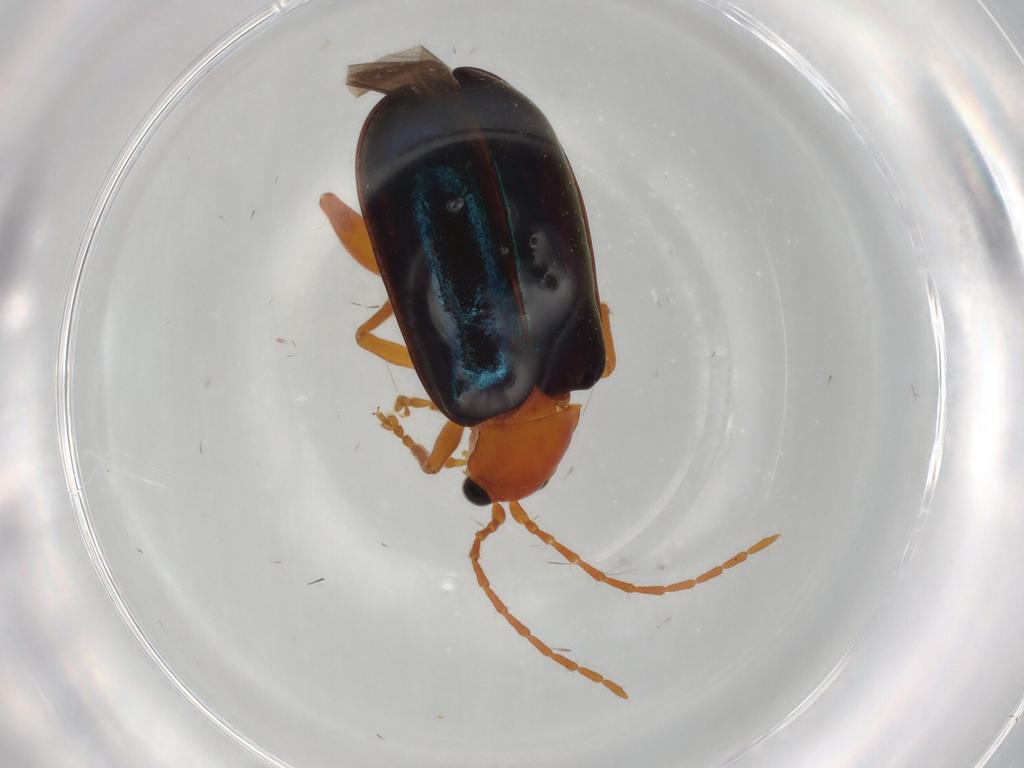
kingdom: Animalia
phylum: Arthropoda
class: Insecta
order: Coleoptera
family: Chrysomelidae
